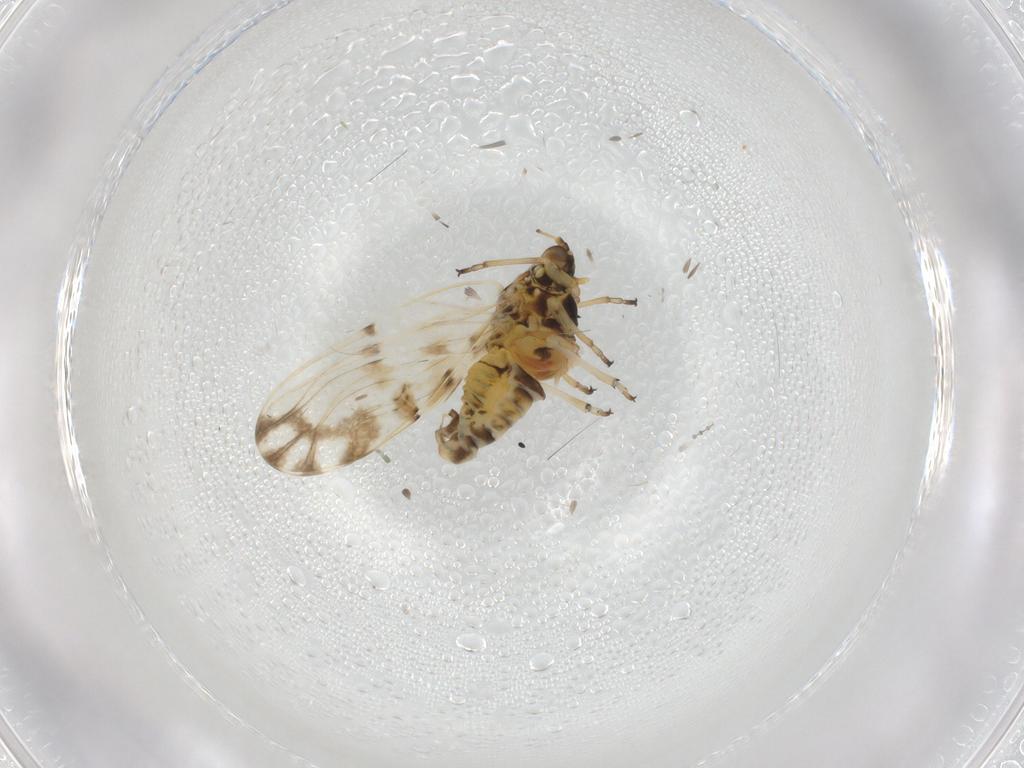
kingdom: Animalia
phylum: Arthropoda
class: Insecta
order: Hemiptera
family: Psylloidea_incertae_sedis
